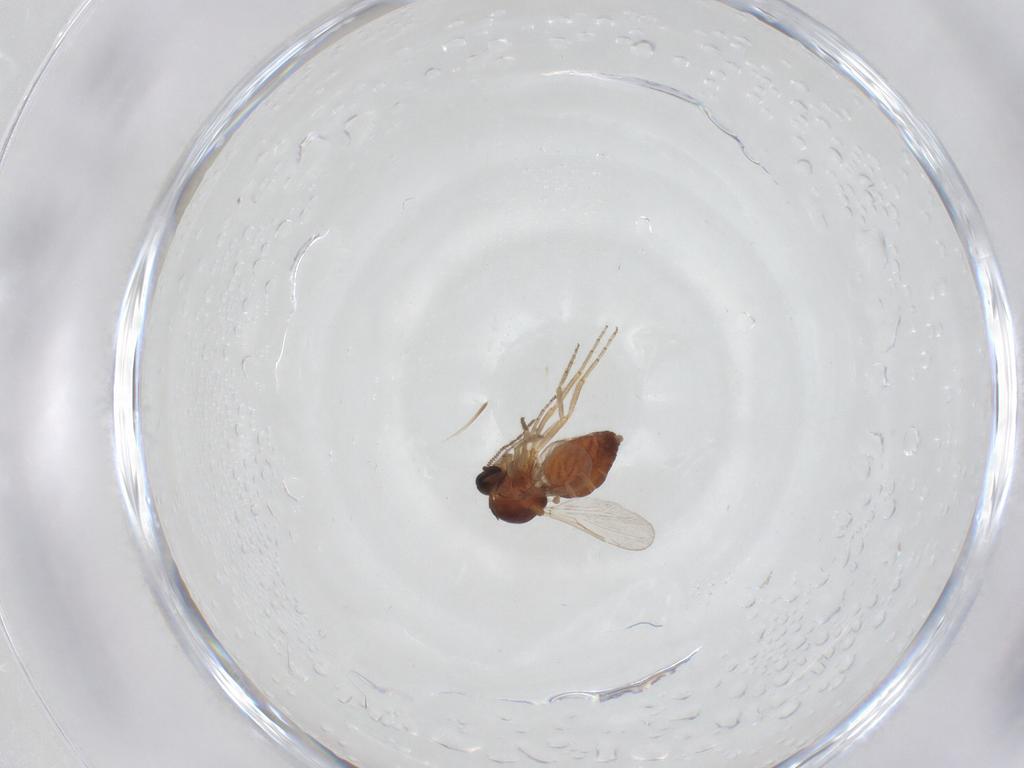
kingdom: Animalia
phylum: Arthropoda
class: Insecta
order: Diptera
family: Ceratopogonidae
